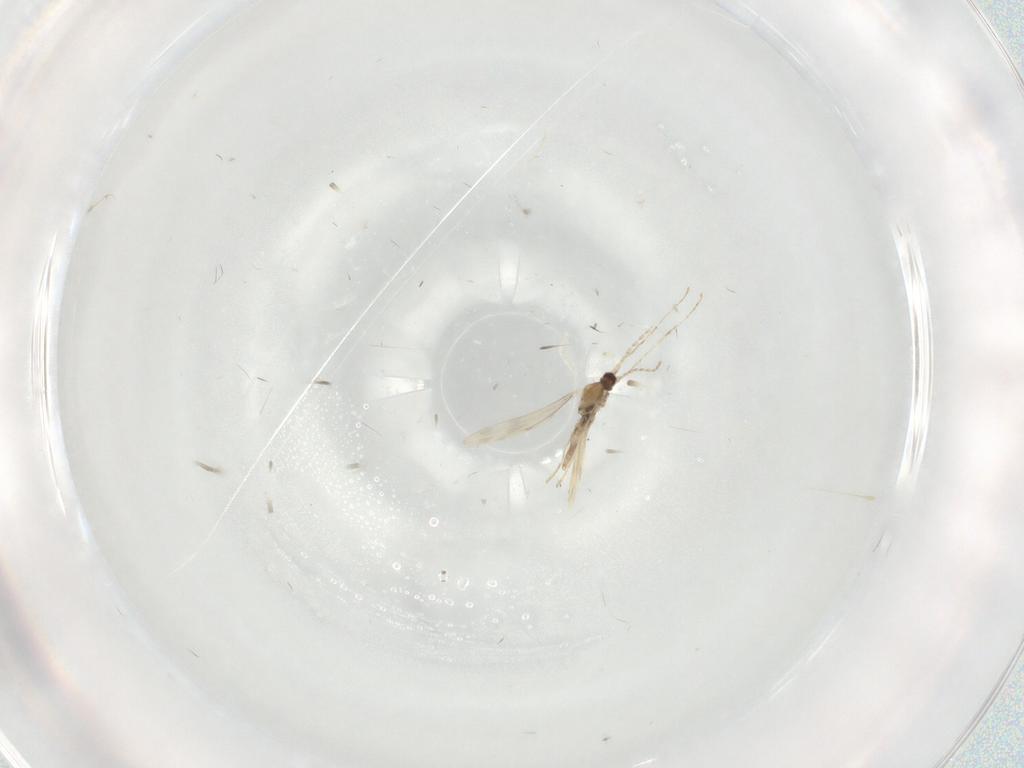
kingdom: Animalia
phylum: Arthropoda
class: Insecta
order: Diptera
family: Cecidomyiidae
